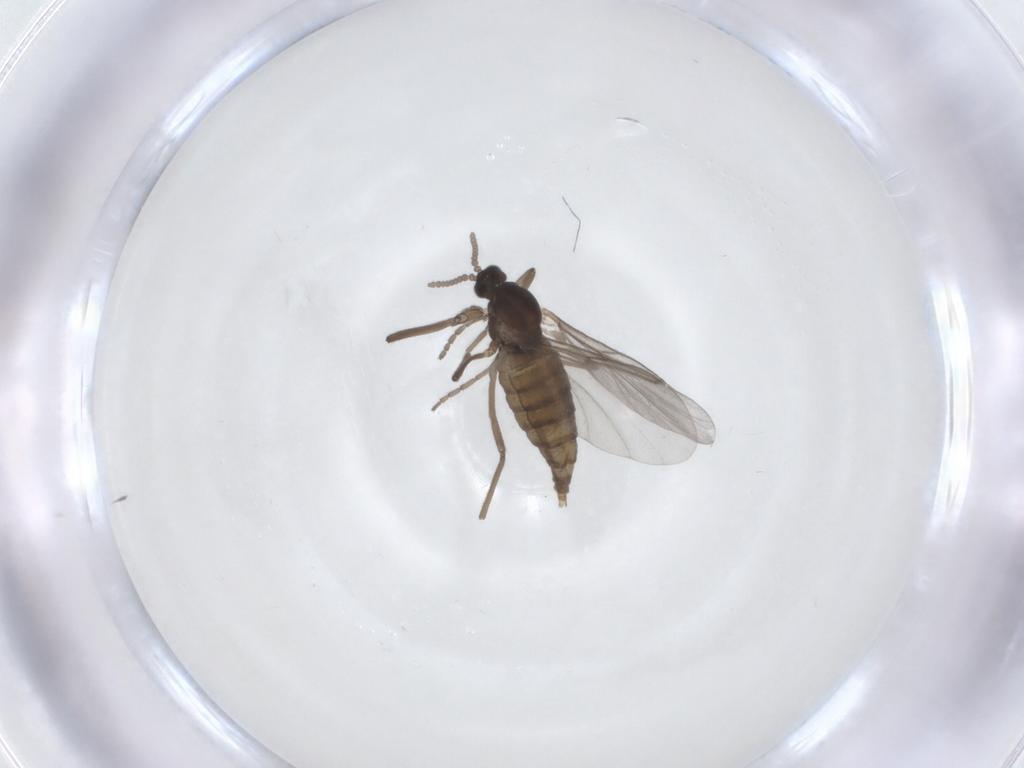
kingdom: Animalia
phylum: Arthropoda
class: Insecta
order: Diptera
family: Cecidomyiidae
